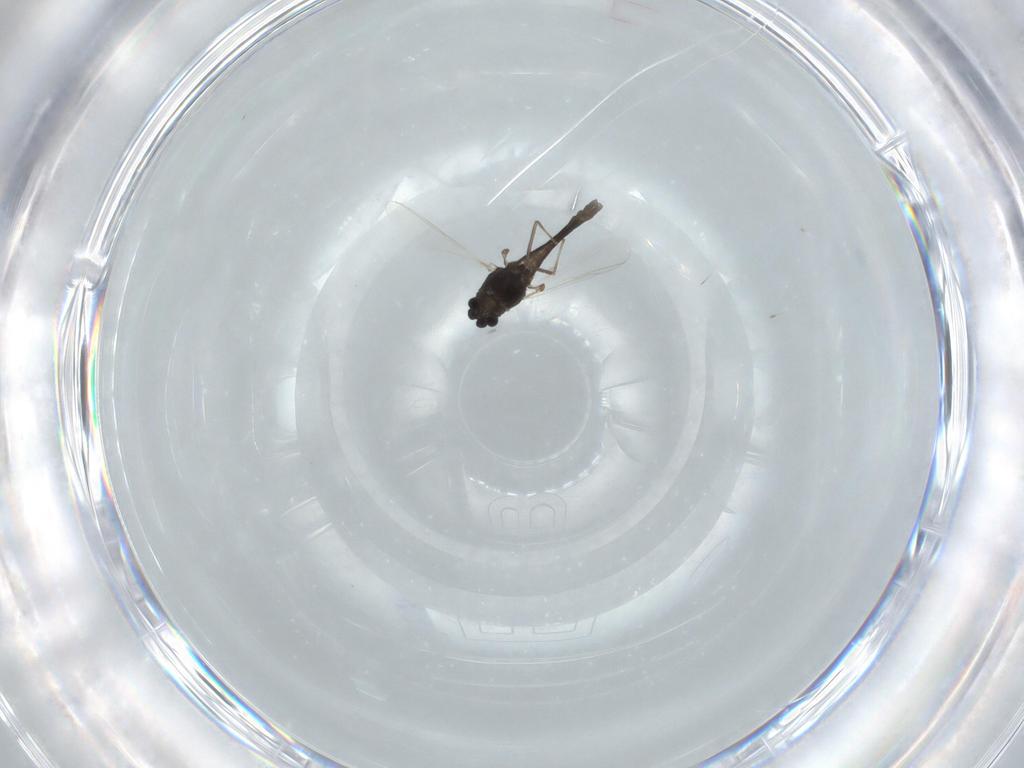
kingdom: Animalia
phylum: Arthropoda
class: Insecta
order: Diptera
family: Chironomidae
